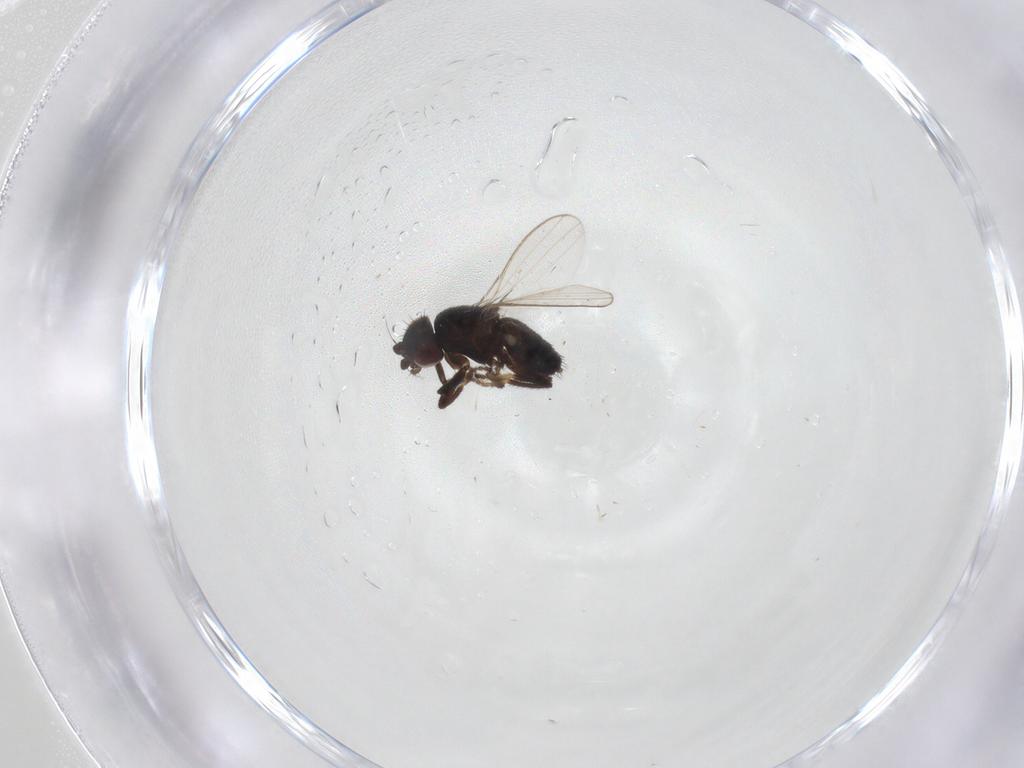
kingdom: Animalia
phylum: Arthropoda
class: Insecta
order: Diptera
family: Milichiidae
